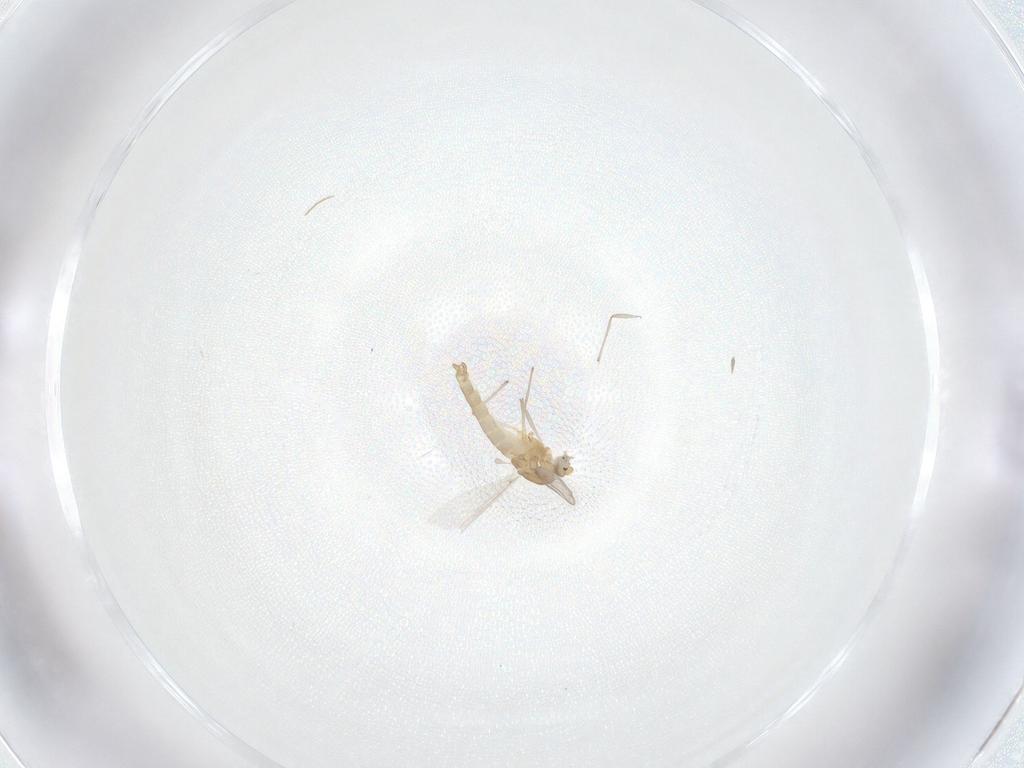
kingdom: Animalia
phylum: Arthropoda
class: Insecta
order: Diptera
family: Chironomidae
